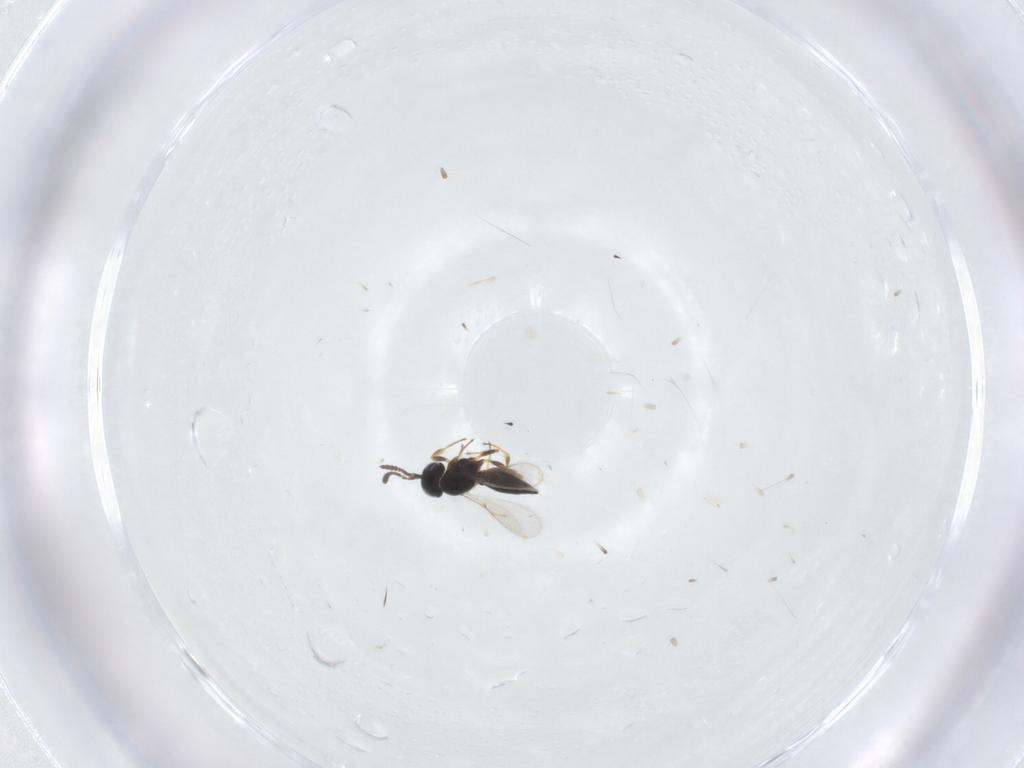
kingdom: Animalia
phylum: Arthropoda
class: Insecta
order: Hymenoptera
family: Scelionidae
